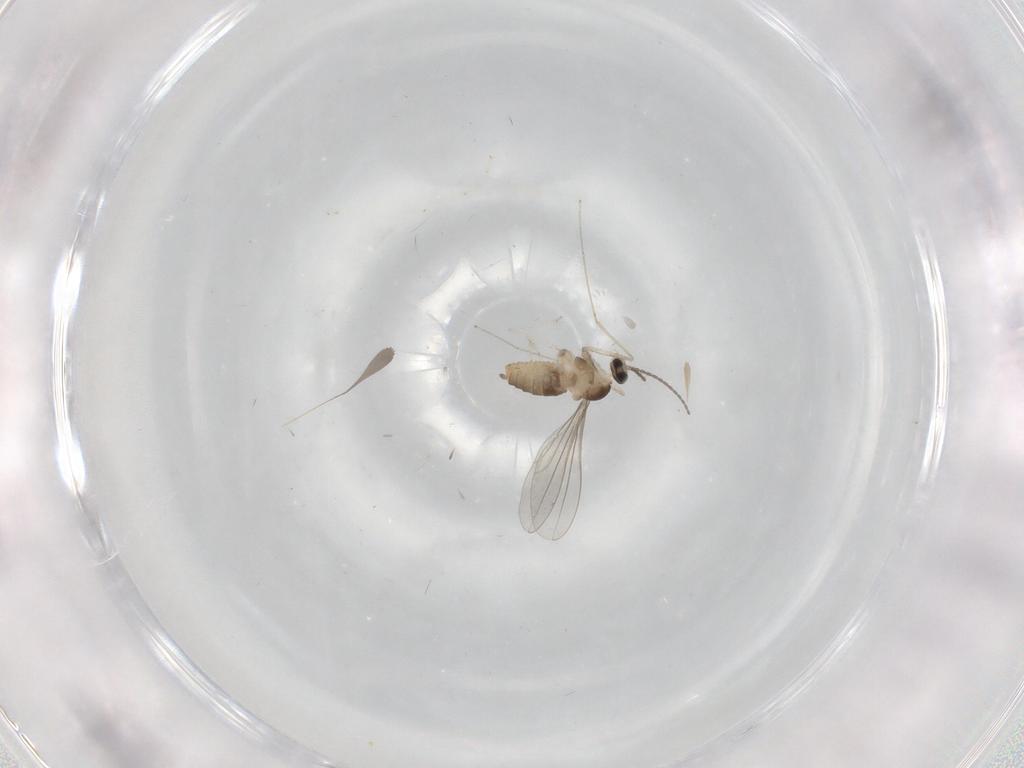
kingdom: Animalia
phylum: Arthropoda
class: Insecta
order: Diptera
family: Cecidomyiidae
